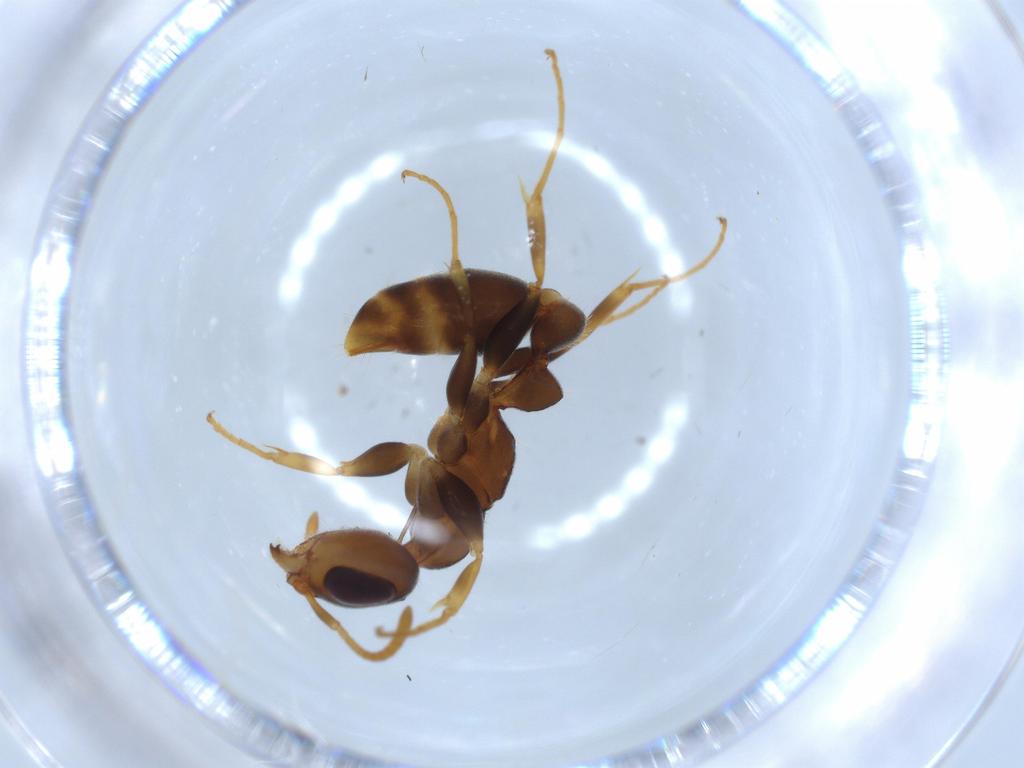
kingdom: Animalia
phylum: Arthropoda
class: Insecta
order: Hymenoptera
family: Formicidae
